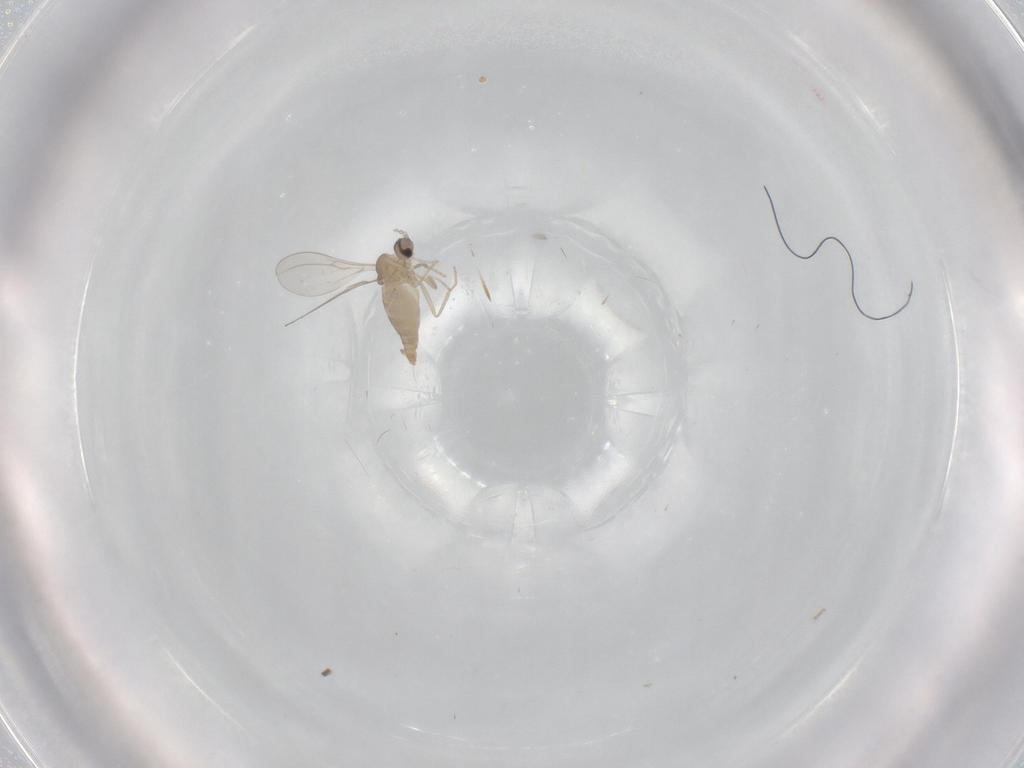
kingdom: Animalia
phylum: Arthropoda
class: Insecta
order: Diptera
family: Cecidomyiidae
